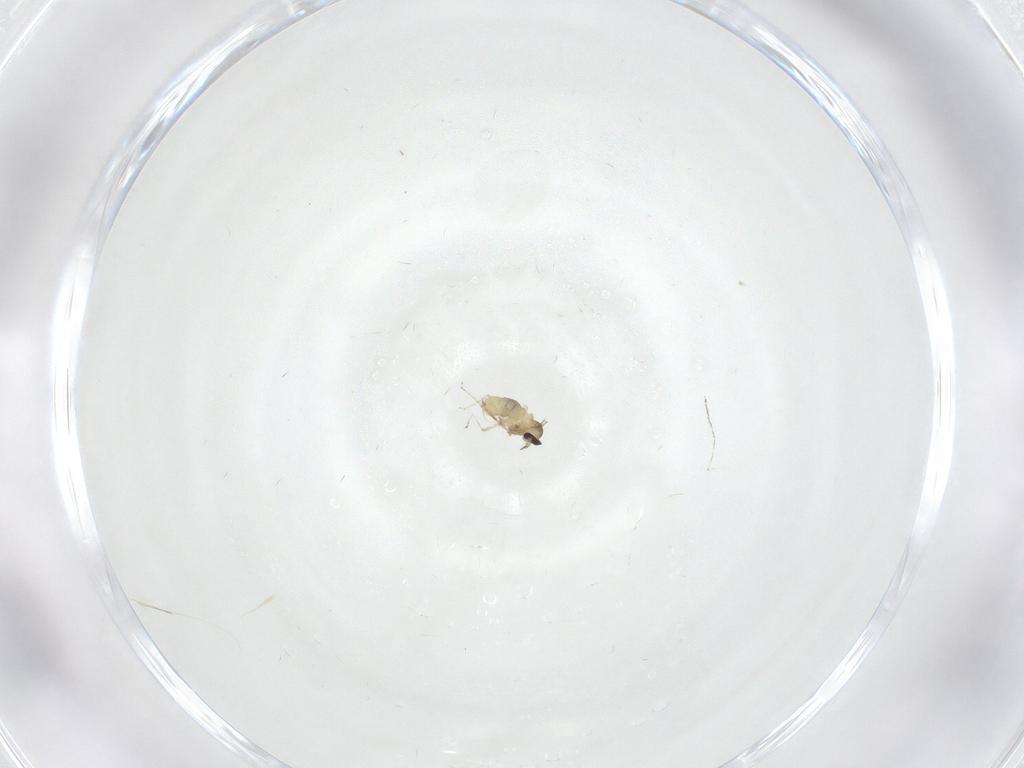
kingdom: Animalia
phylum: Arthropoda
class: Insecta
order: Diptera
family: Cecidomyiidae
